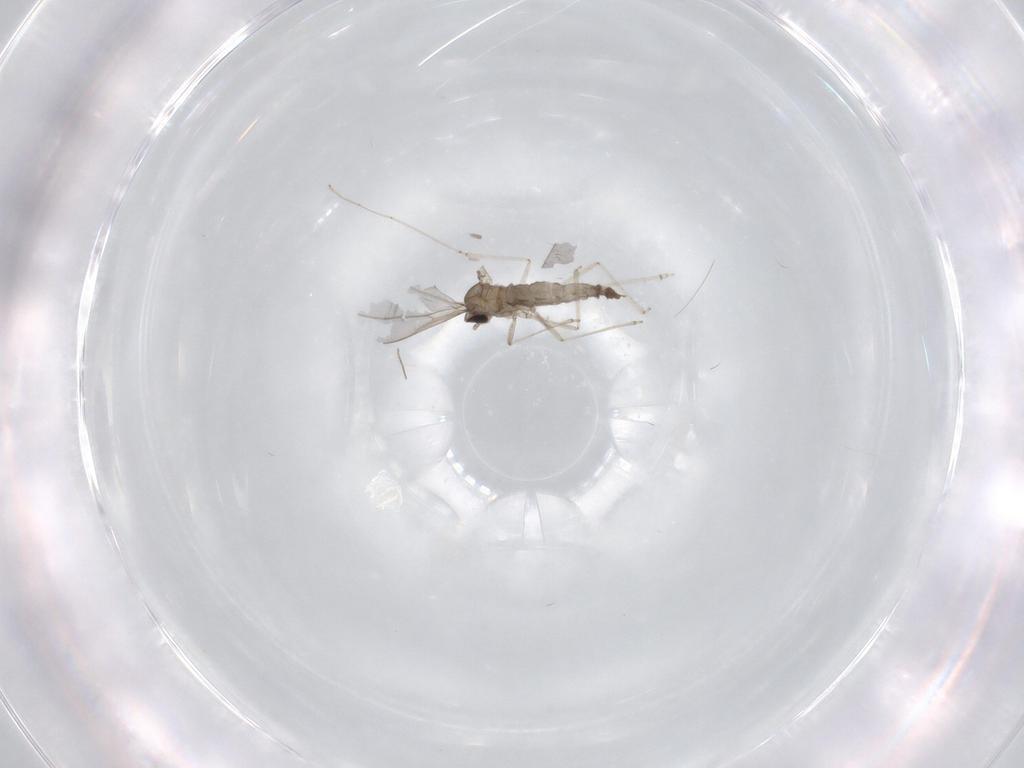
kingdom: Animalia
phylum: Arthropoda
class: Insecta
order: Diptera
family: Cecidomyiidae
